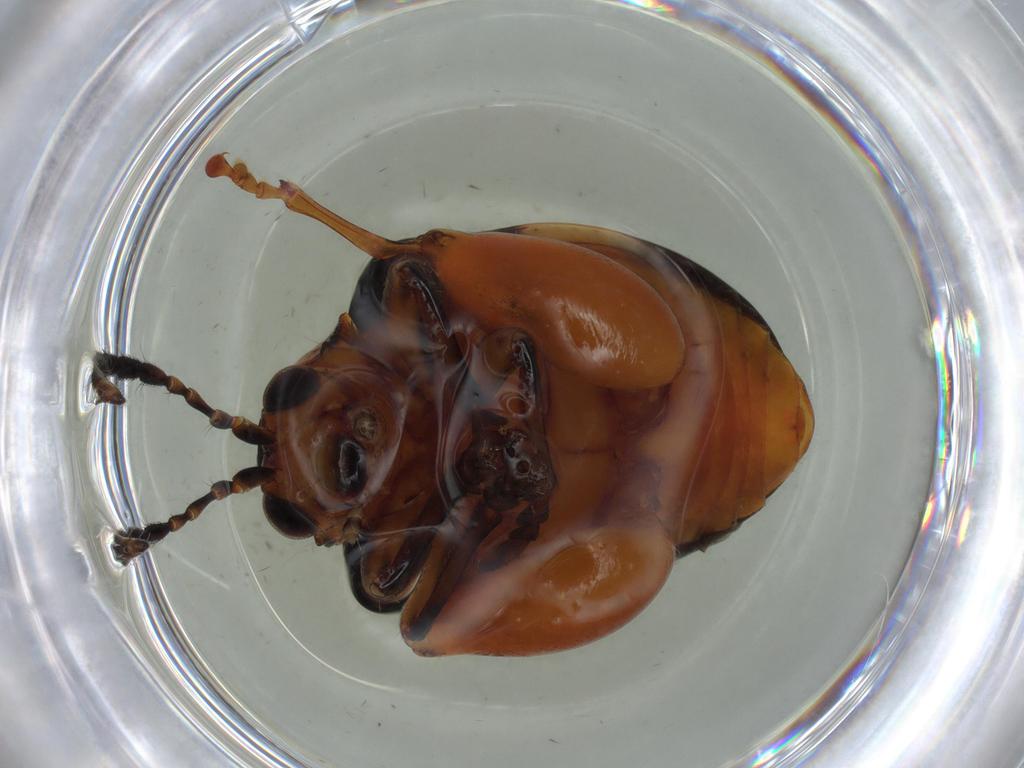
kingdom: Animalia
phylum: Arthropoda
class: Insecta
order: Coleoptera
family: Chrysomelidae
